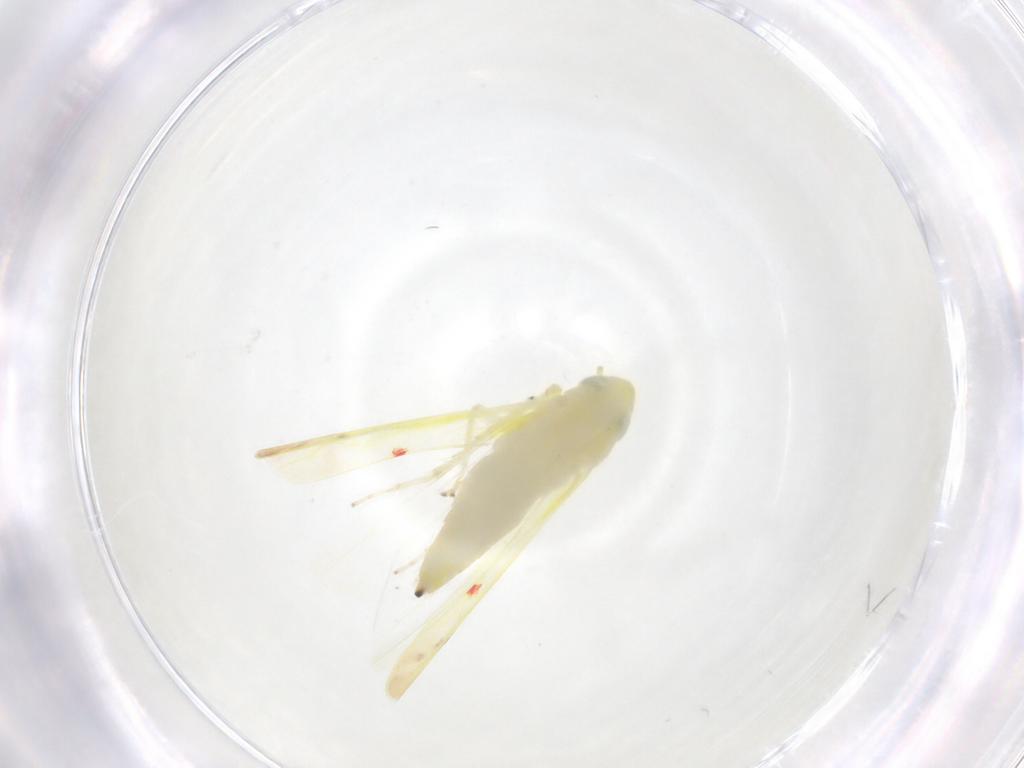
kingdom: Animalia
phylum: Arthropoda
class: Insecta
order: Hemiptera
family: Cicadellidae
